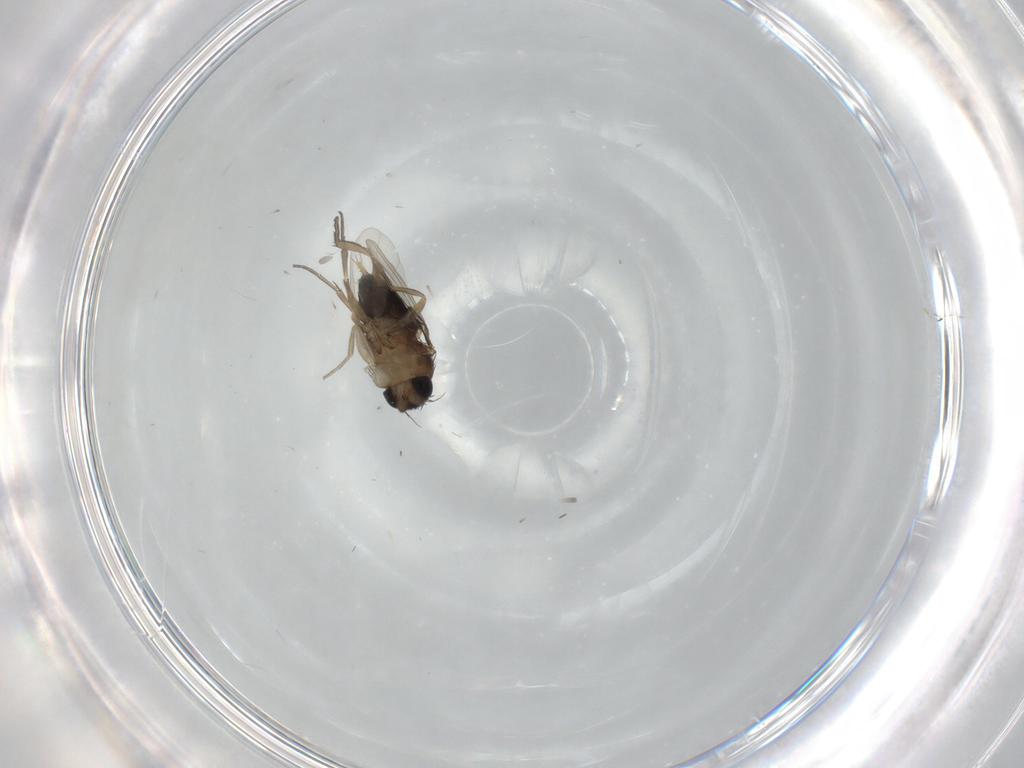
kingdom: Animalia
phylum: Arthropoda
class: Insecta
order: Diptera
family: Phoridae
